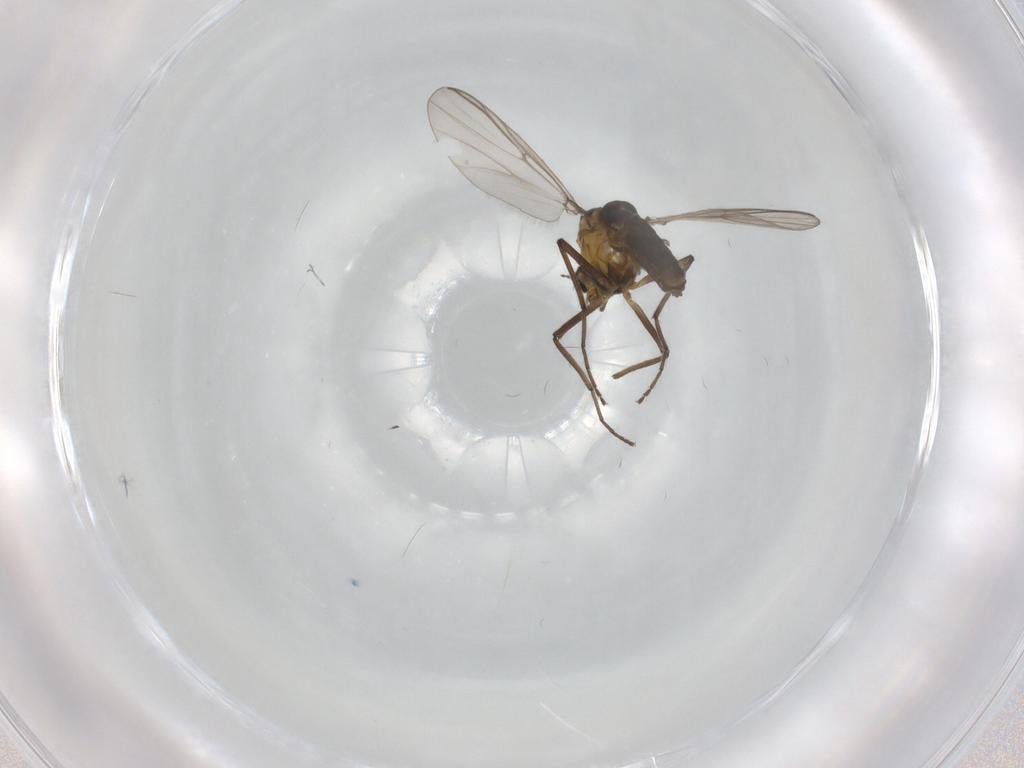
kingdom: Animalia
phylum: Arthropoda
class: Insecta
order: Diptera
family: Chironomidae
